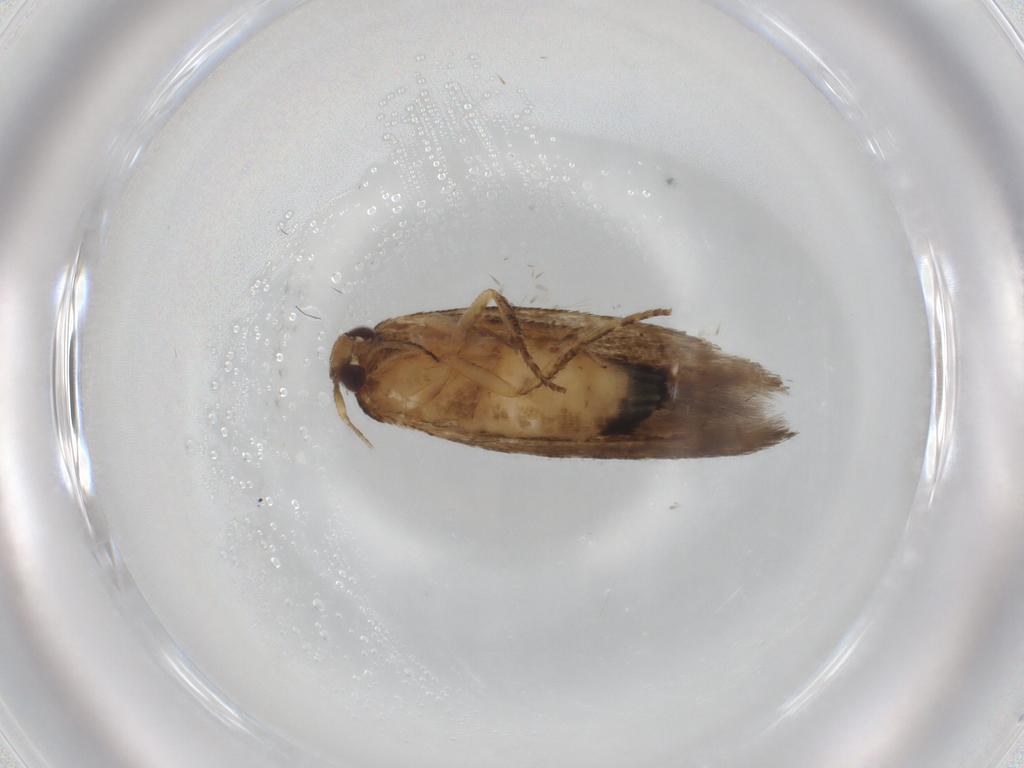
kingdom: Animalia
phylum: Arthropoda
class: Insecta
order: Lepidoptera
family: Cosmopterigidae
